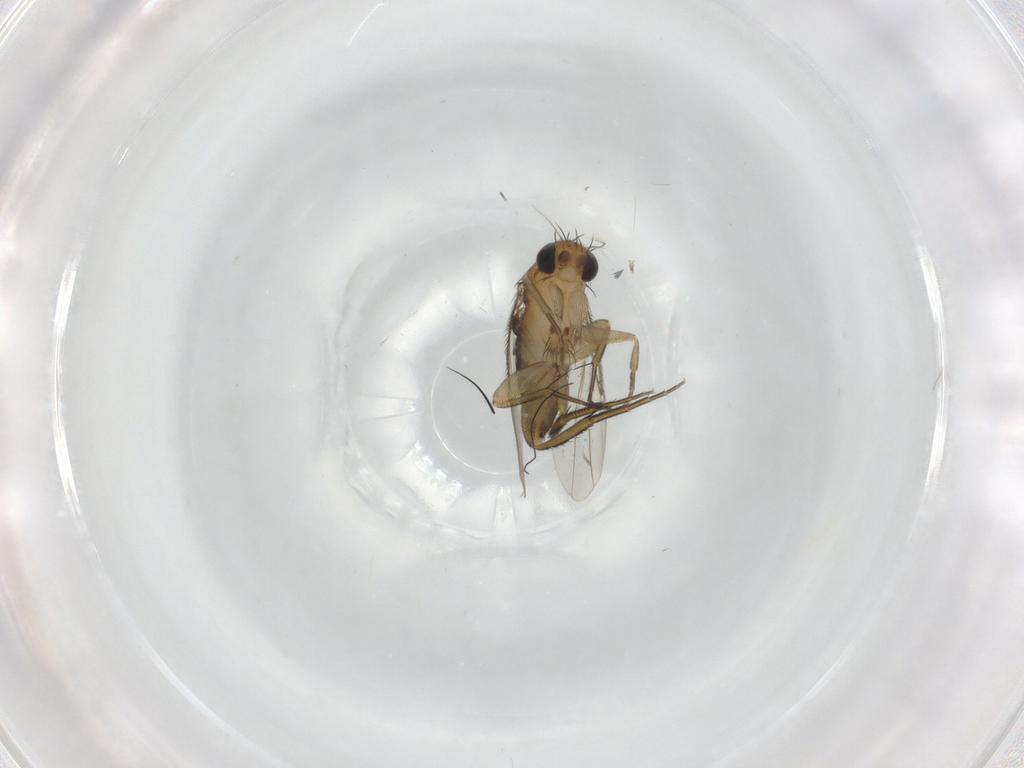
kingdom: Animalia
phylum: Arthropoda
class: Insecta
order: Diptera
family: Phoridae
